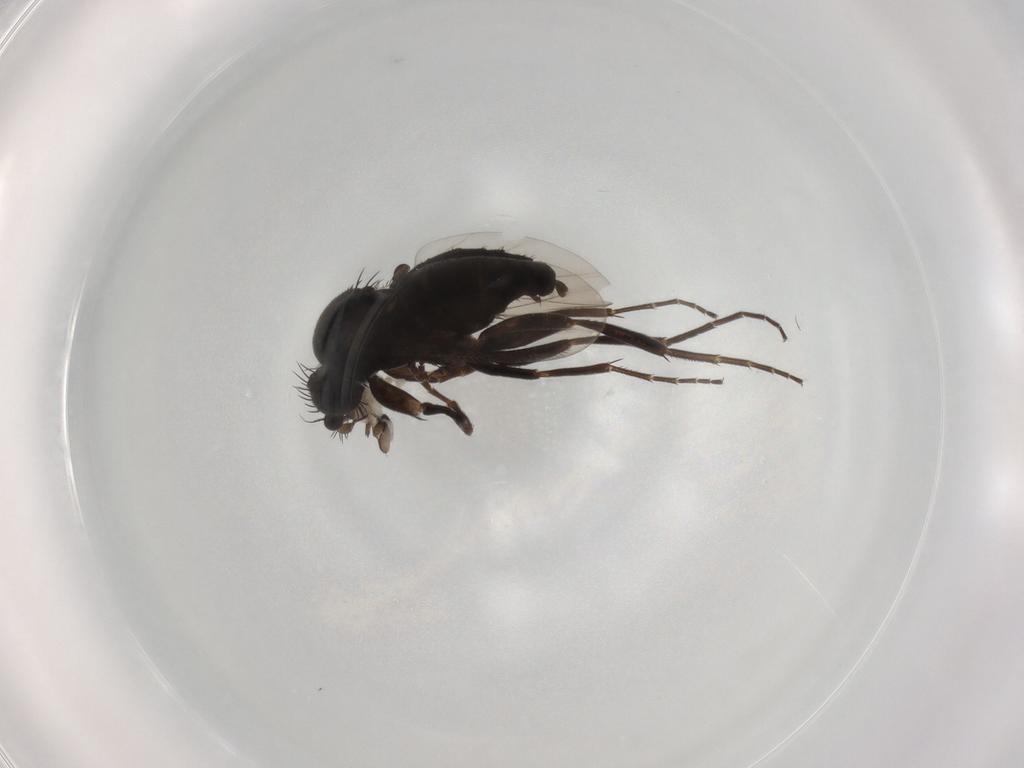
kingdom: Animalia
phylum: Arthropoda
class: Insecta
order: Diptera
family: Phoridae
